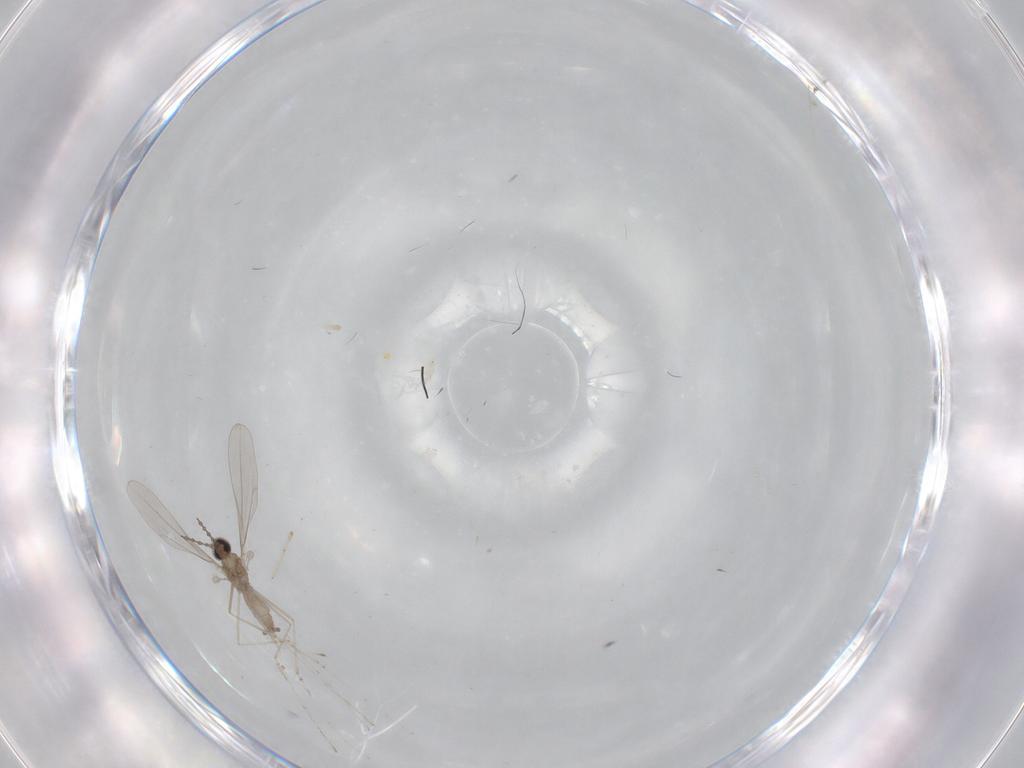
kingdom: Animalia
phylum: Arthropoda
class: Insecta
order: Diptera
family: Cecidomyiidae
